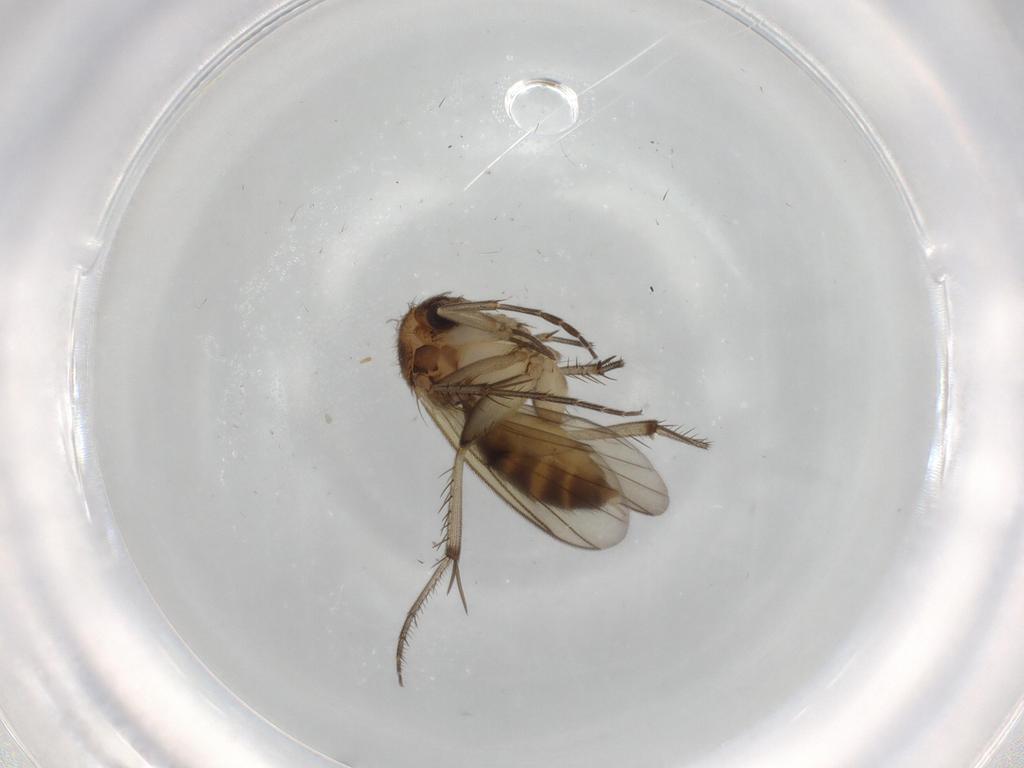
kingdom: Animalia
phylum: Arthropoda
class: Insecta
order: Diptera
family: Mycetophilidae
